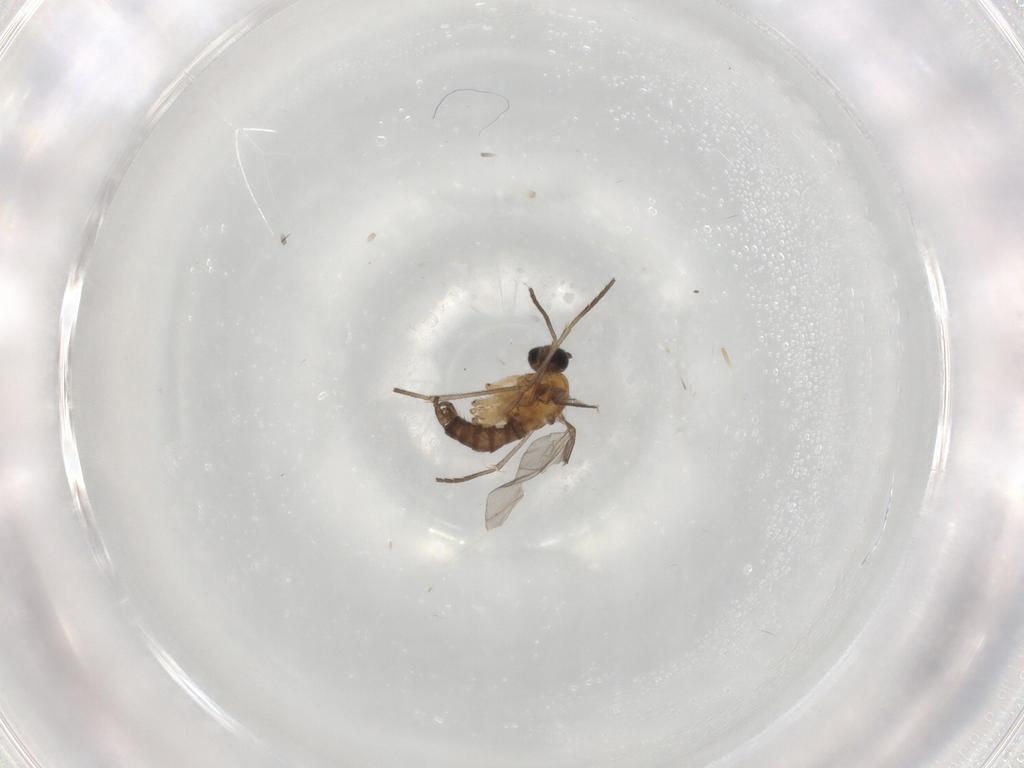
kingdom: Animalia
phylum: Arthropoda
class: Insecta
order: Diptera
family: Sciaridae
